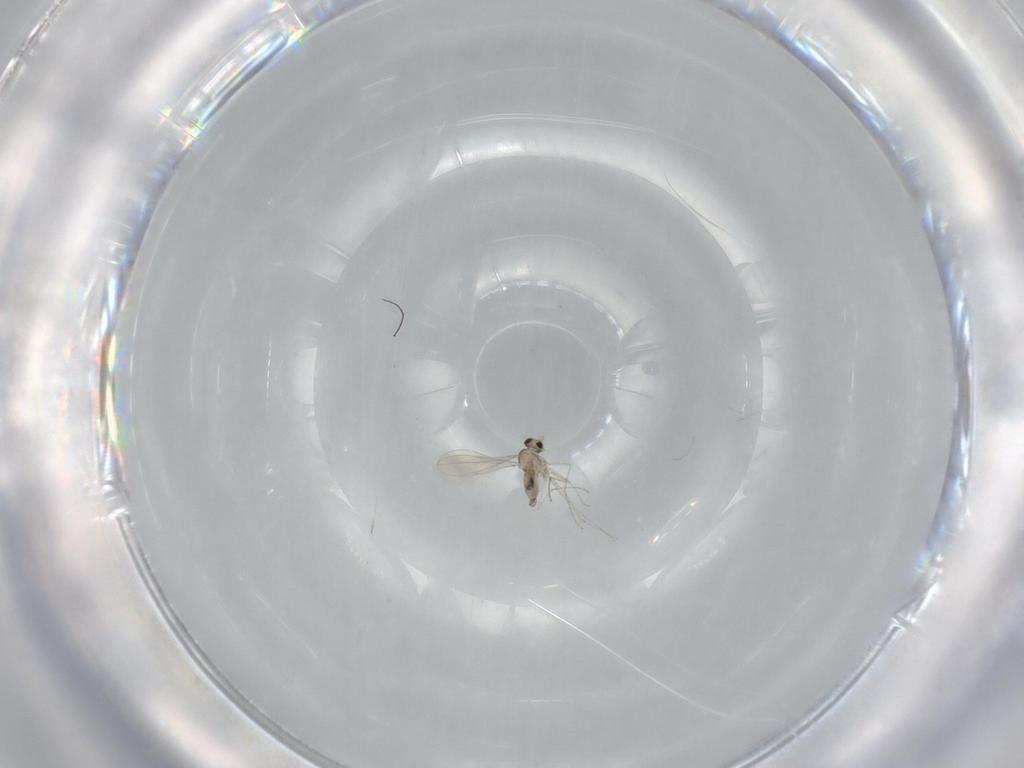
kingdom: Animalia
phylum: Arthropoda
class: Insecta
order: Diptera
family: Cecidomyiidae
